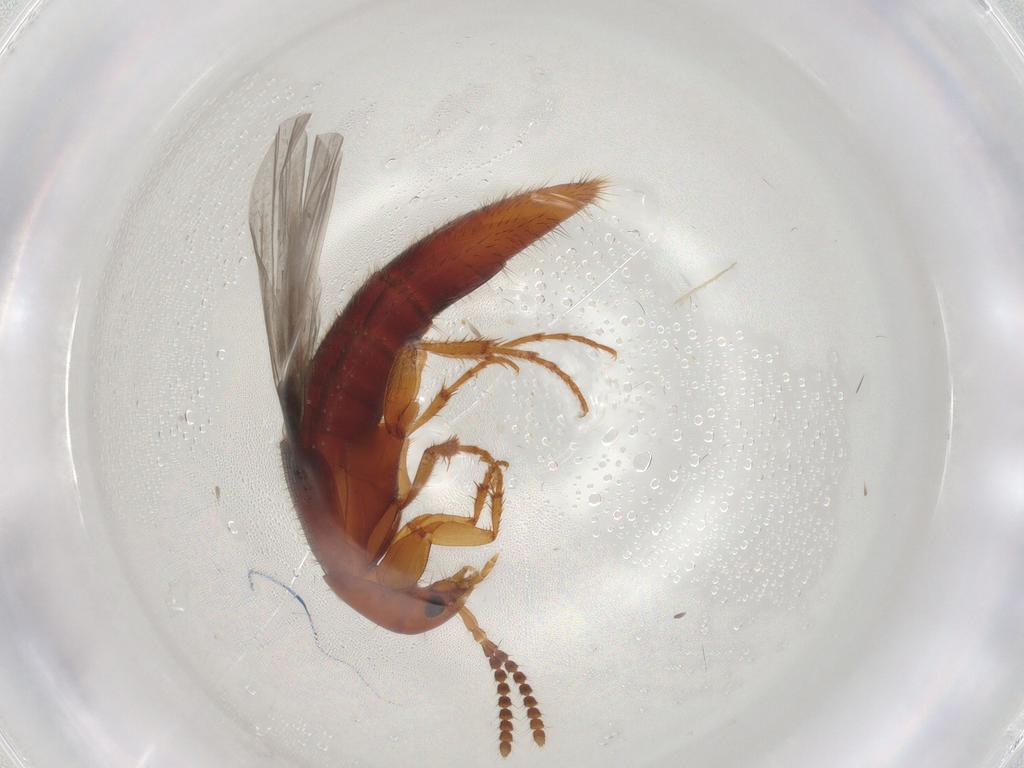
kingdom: Animalia
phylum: Arthropoda
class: Insecta
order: Coleoptera
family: Staphylinidae
